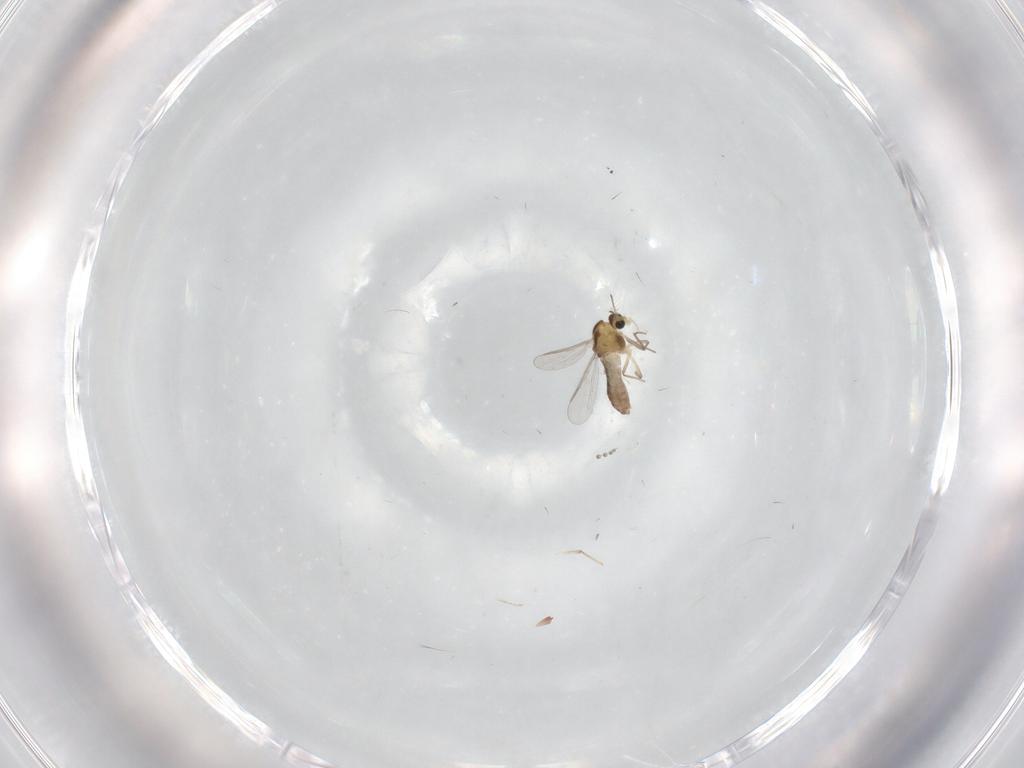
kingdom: Animalia
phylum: Arthropoda
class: Insecta
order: Diptera
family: Chironomidae
